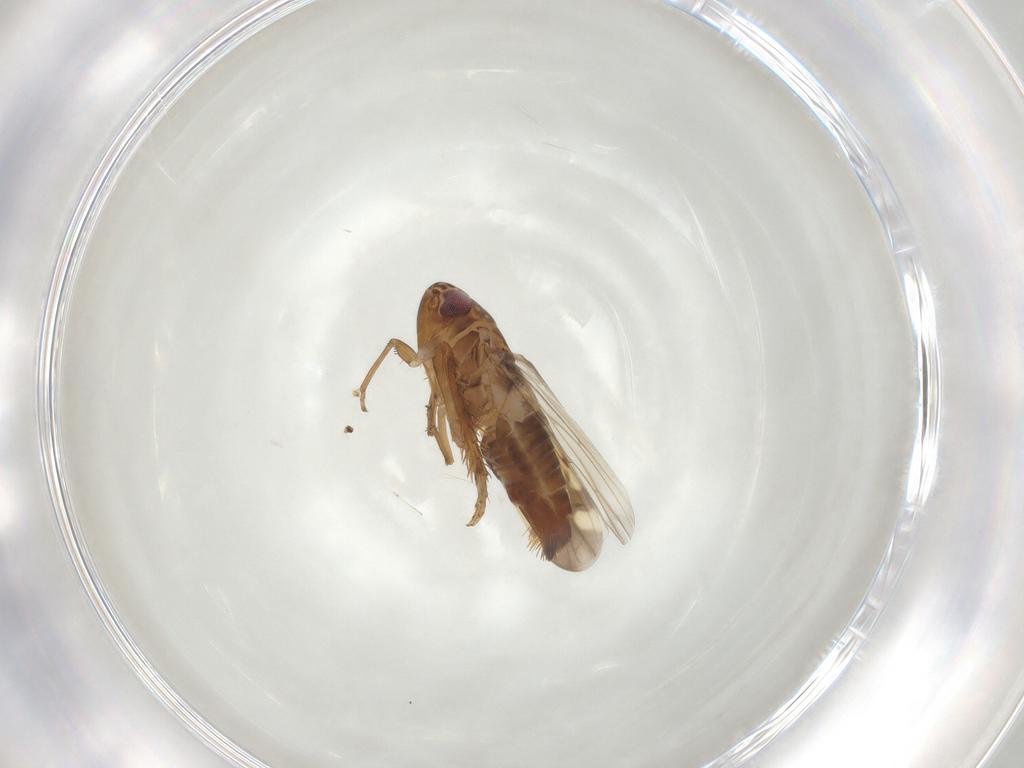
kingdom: Animalia
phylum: Arthropoda
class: Insecta
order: Hemiptera
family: Cicadellidae
